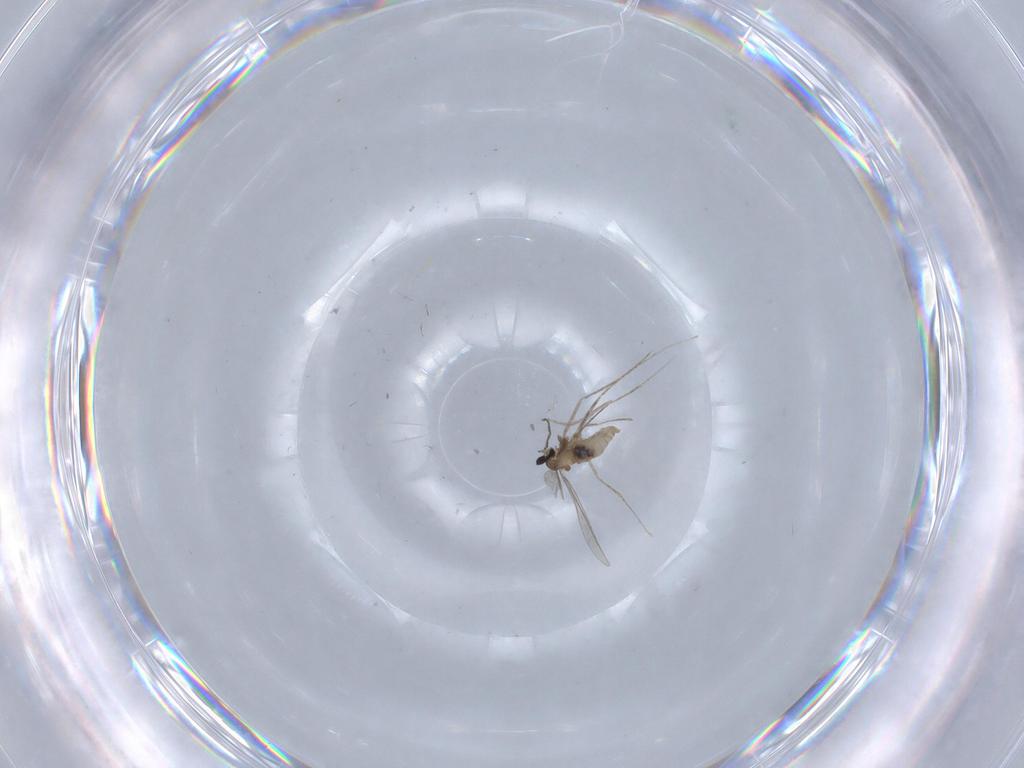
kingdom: Animalia
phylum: Arthropoda
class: Insecta
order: Diptera
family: Cecidomyiidae
